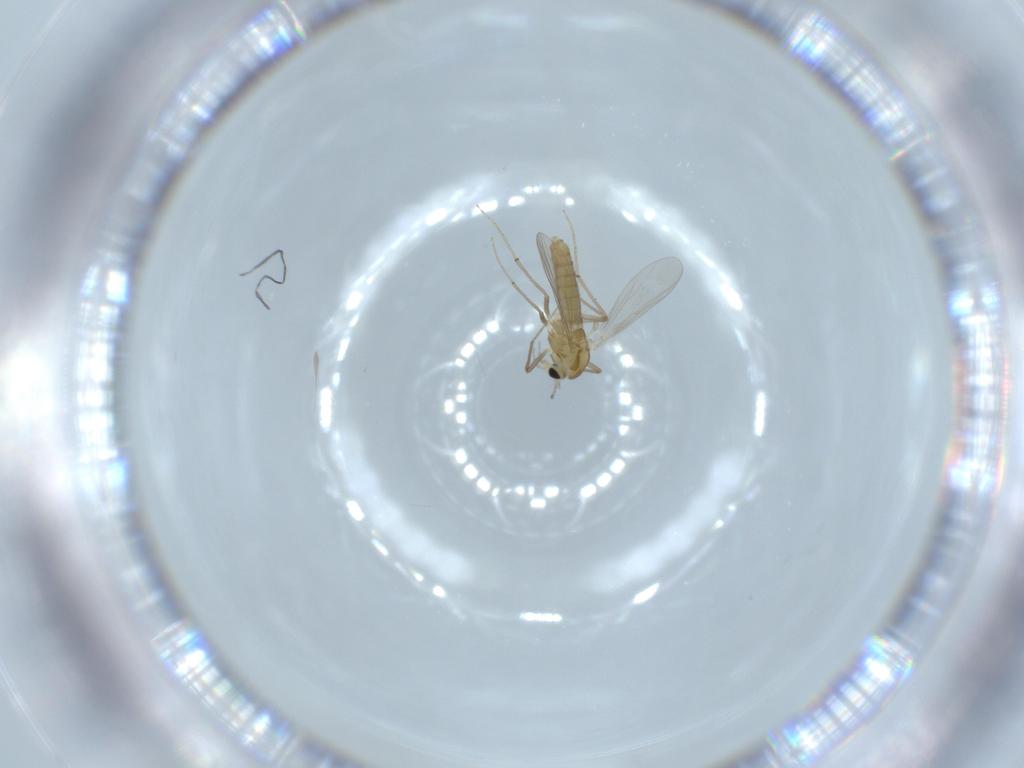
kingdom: Animalia
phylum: Arthropoda
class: Insecta
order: Diptera
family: Chironomidae
